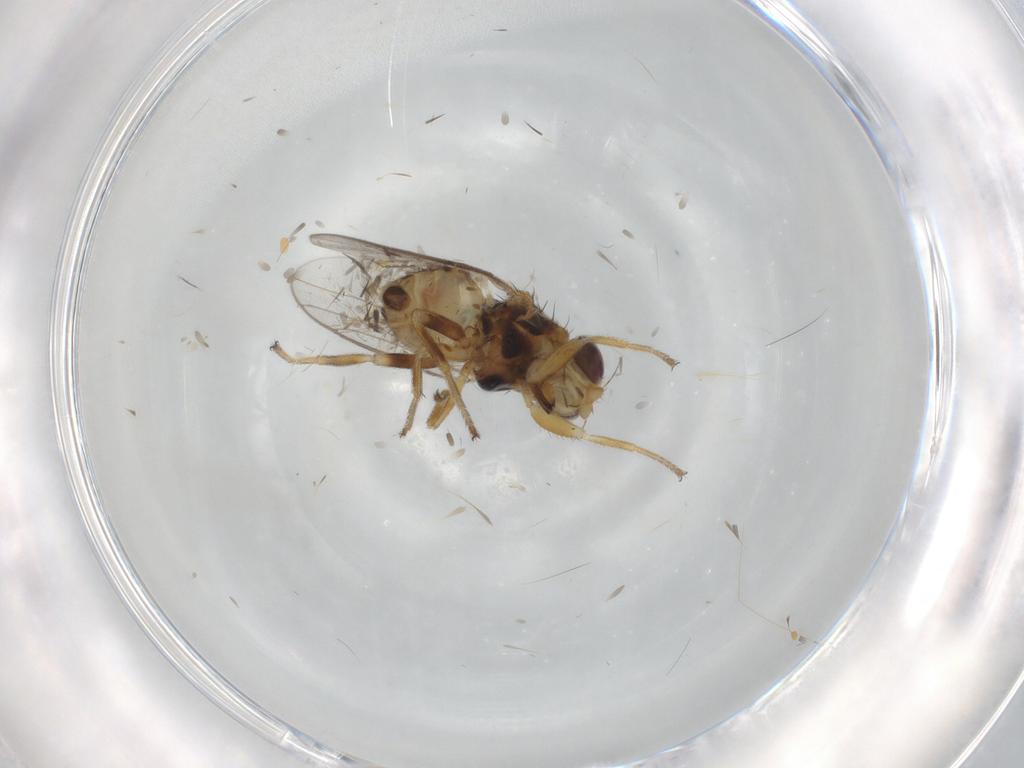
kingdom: Animalia
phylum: Arthropoda
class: Insecta
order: Diptera
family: Chloropidae
